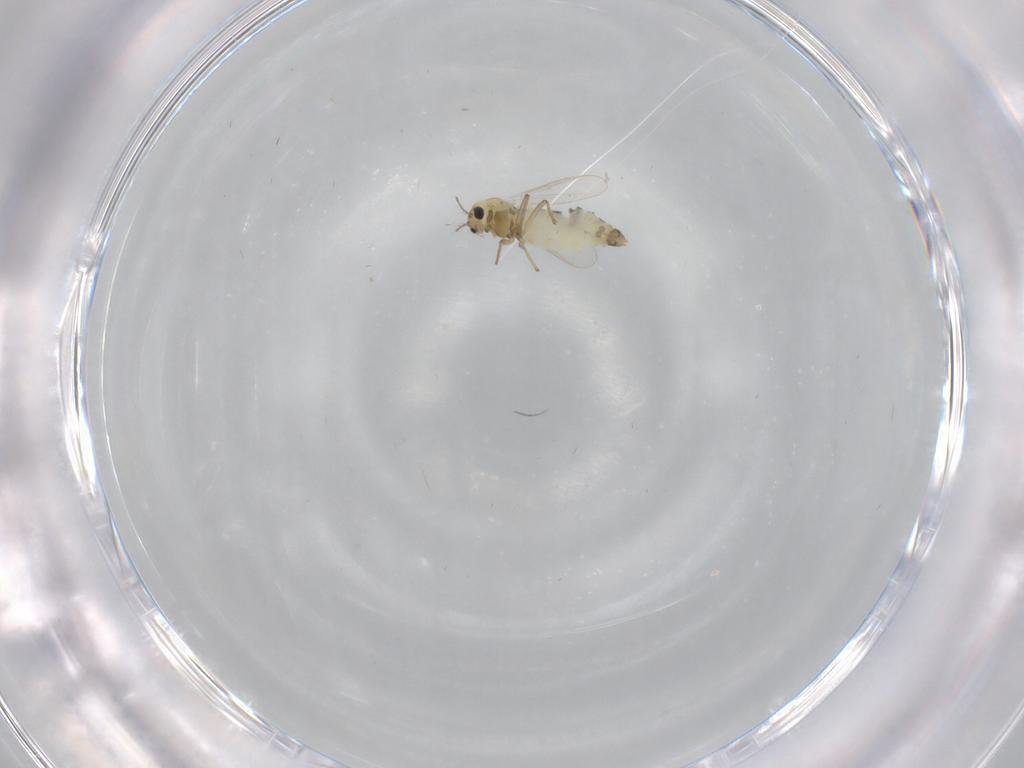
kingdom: Animalia
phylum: Arthropoda
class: Insecta
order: Diptera
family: Chironomidae
